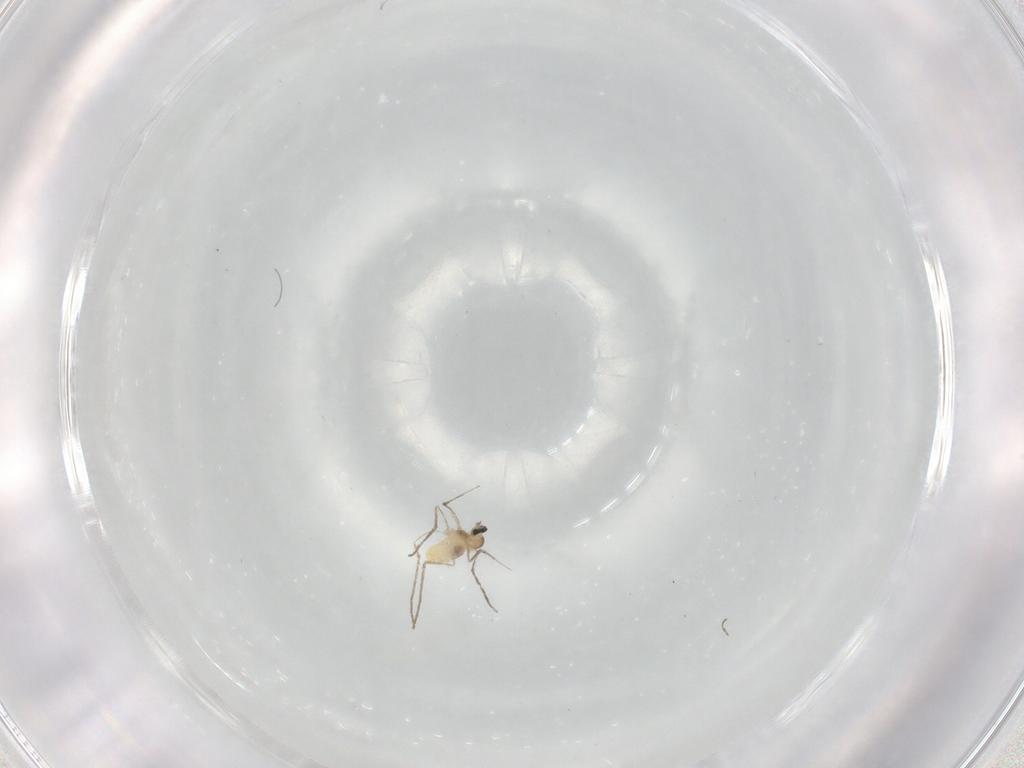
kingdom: Animalia
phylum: Arthropoda
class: Insecta
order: Diptera
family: Cecidomyiidae
